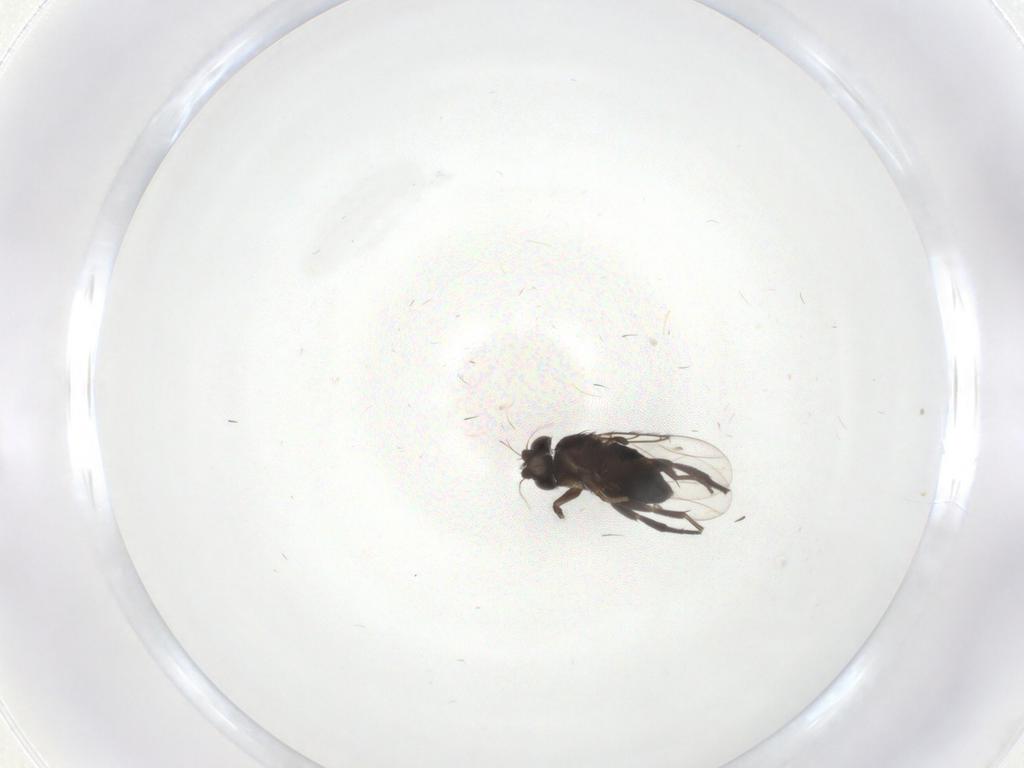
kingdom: Animalia
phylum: Arthropoda
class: Insecta
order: Diptera
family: Phoridae
